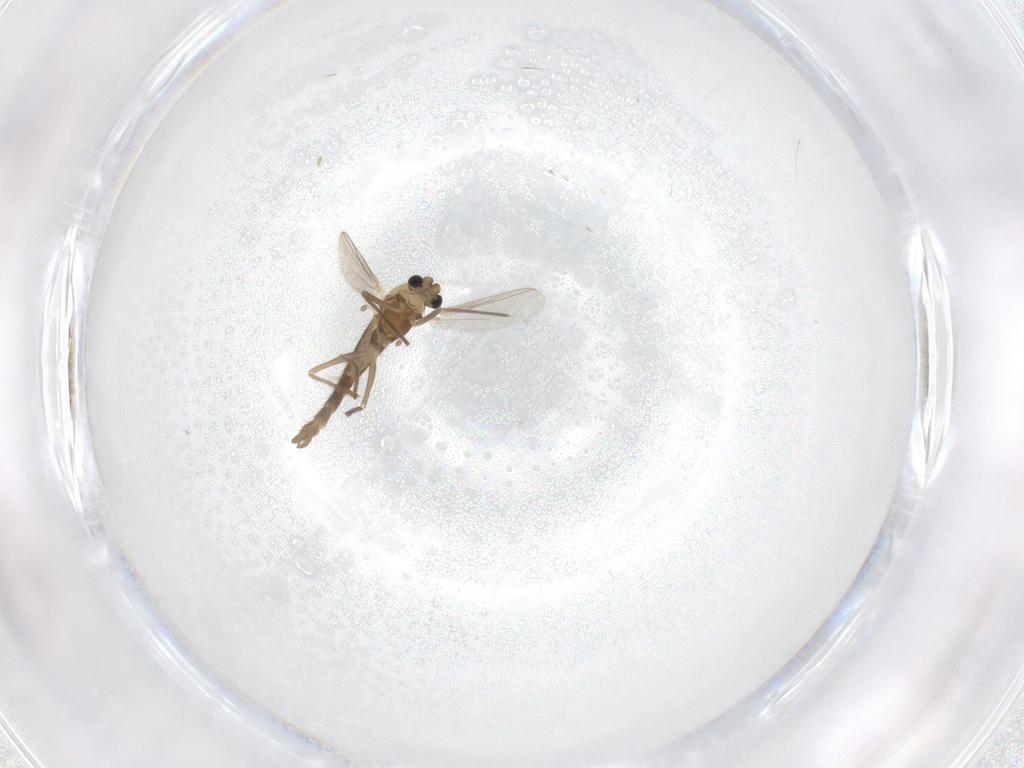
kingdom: Animalia
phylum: Arthropoda
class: Insecta
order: Diptera
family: Chironomidae
